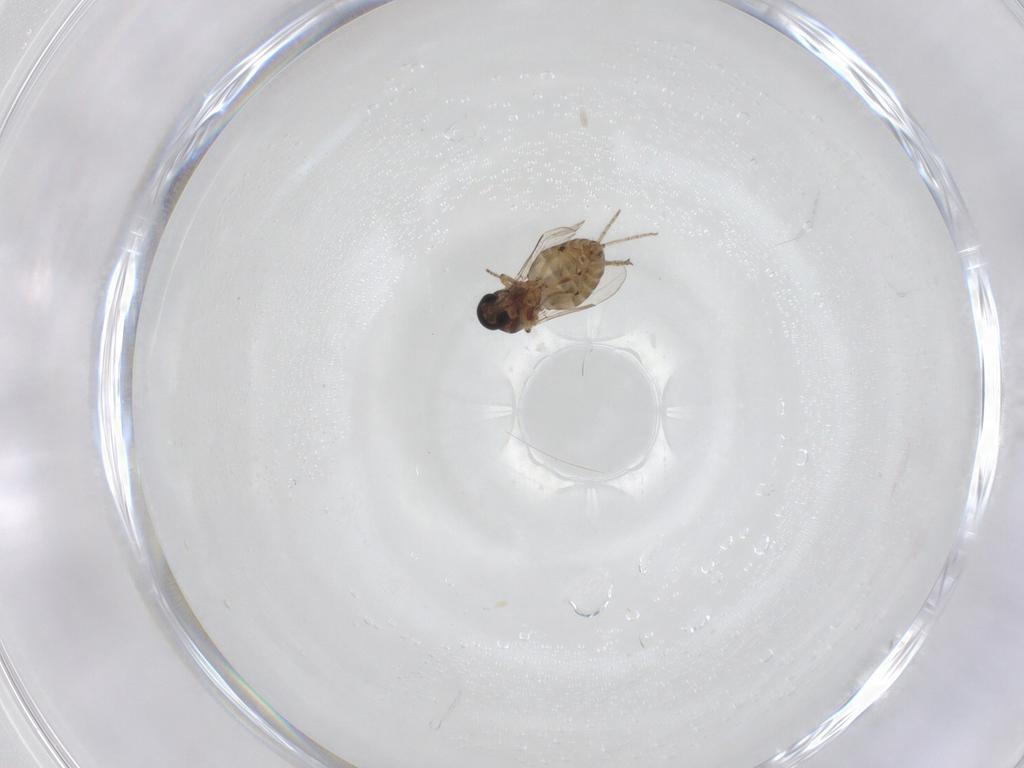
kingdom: Animalia
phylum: Arthropoda
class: Insecta
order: Diptera
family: Culicidae
